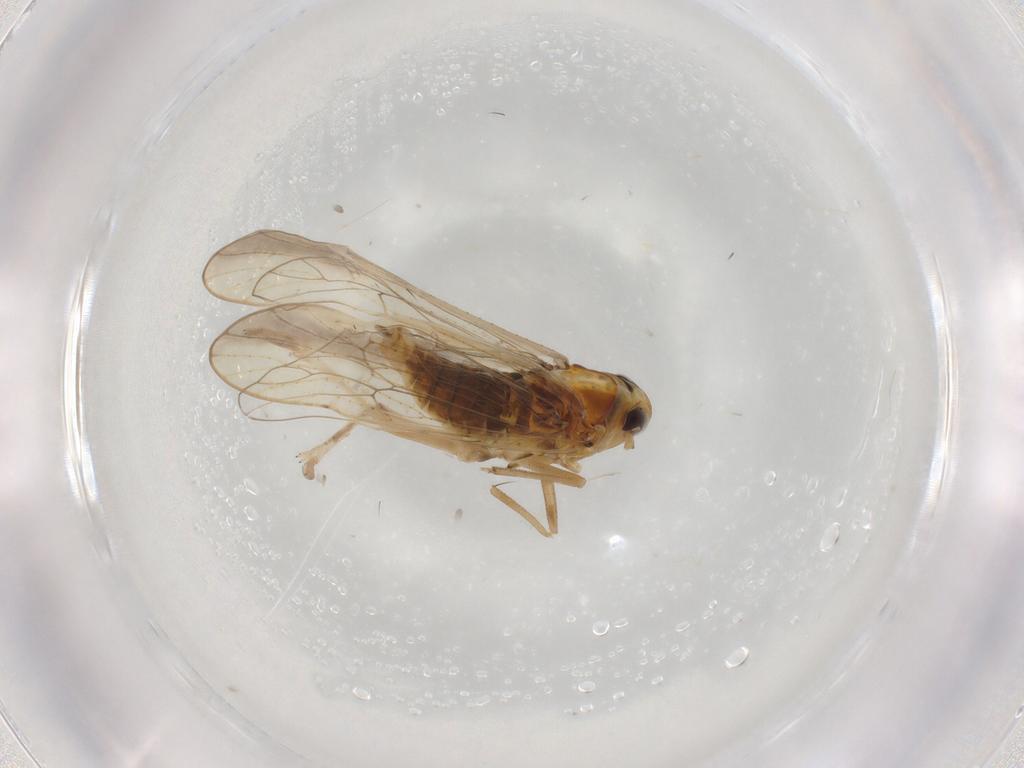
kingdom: Animalia
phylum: Arthropoda
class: Insecta
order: Hemiptera
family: Delphacidae
